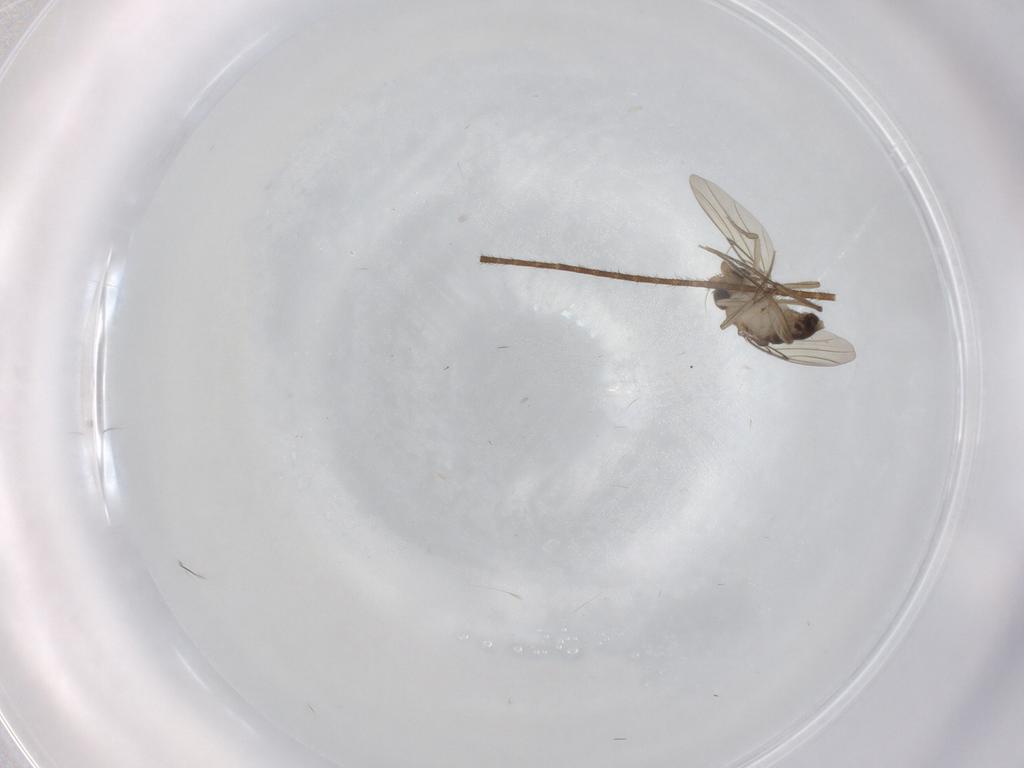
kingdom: Animalia
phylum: Arthropoda
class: Insecta
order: Diptera
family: Phoridae
